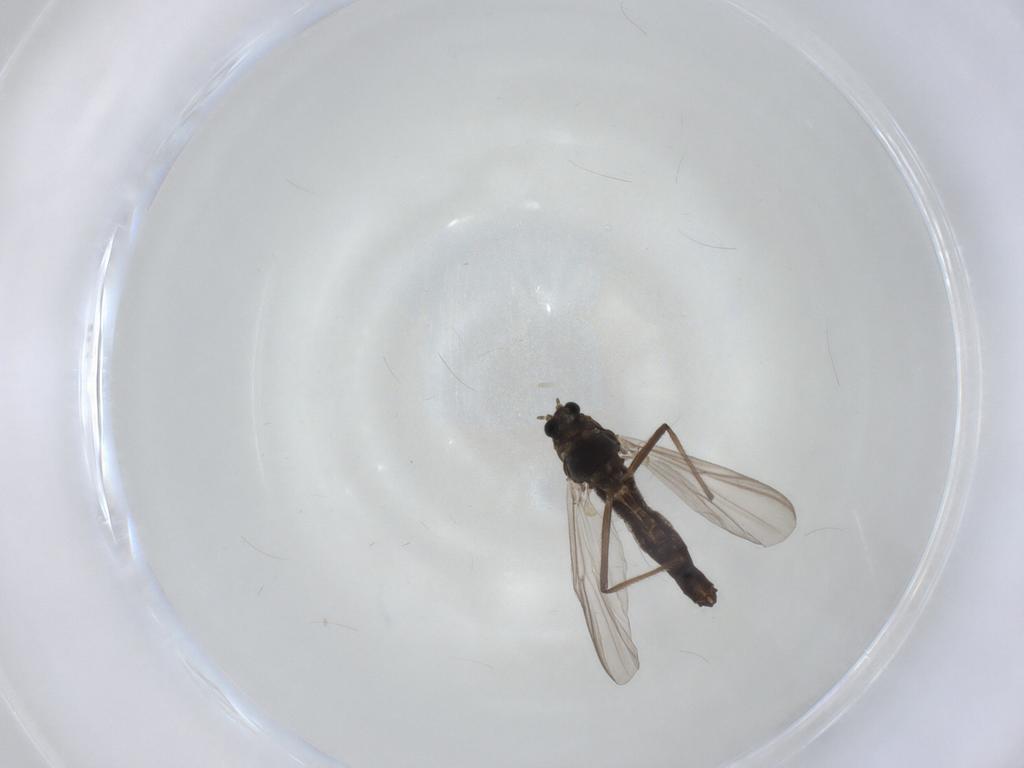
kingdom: Animalia
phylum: Arthropoda
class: Insecta
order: Diptera
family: Chironomidae
